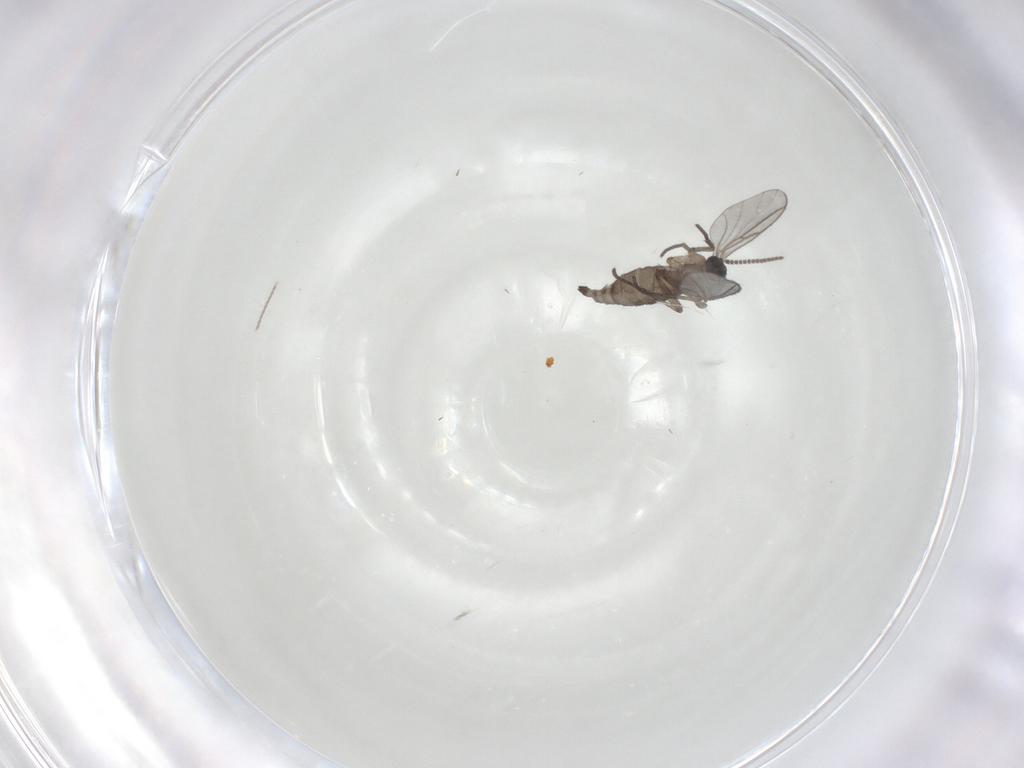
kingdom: Animalia
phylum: Arthropoda
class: Insecta
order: Diptera
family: Cecidomyiidae
